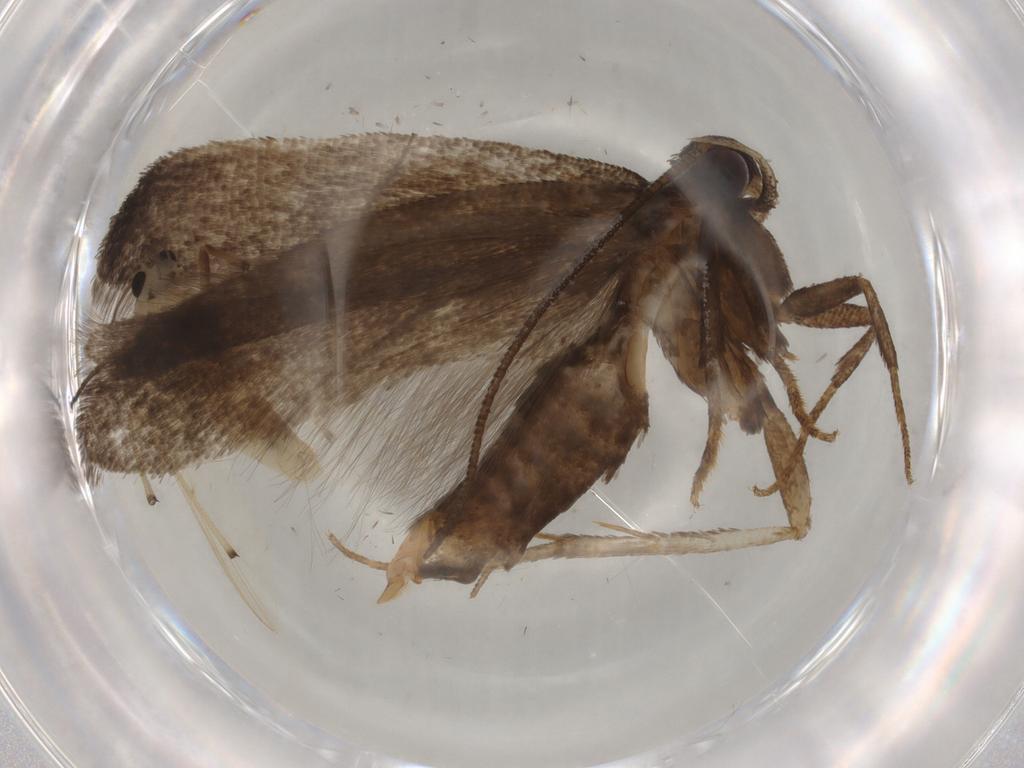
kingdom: Animalia
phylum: Arthropoda
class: Insecta
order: Lepidoptera
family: Gelechiidae
